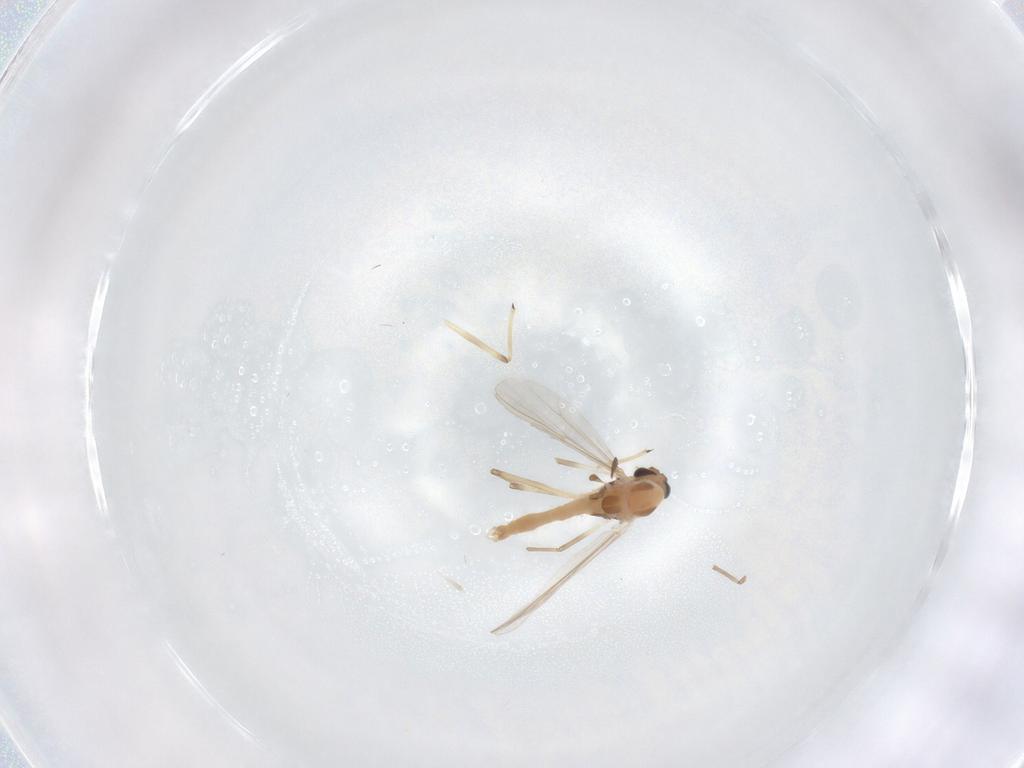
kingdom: Animalia
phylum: Arthropoda
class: Insecta
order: Diptera
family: Chironomidae
